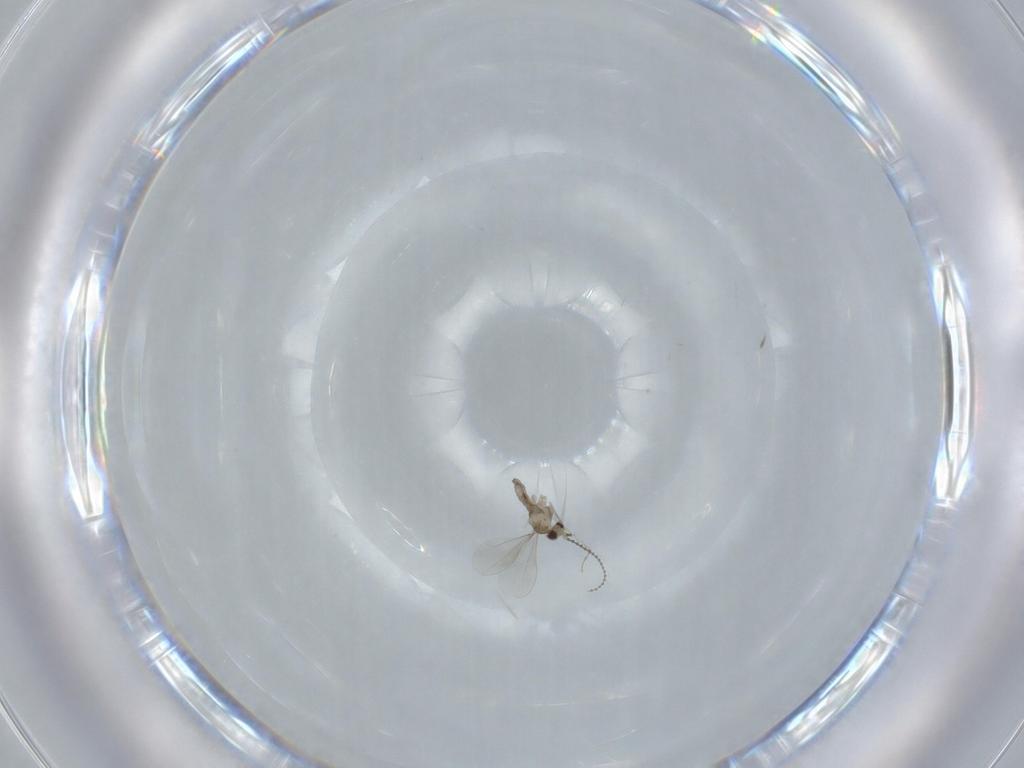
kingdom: Animalia
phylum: Arthropoda
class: Insecta
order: Diptera
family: Cecidomyiidae
